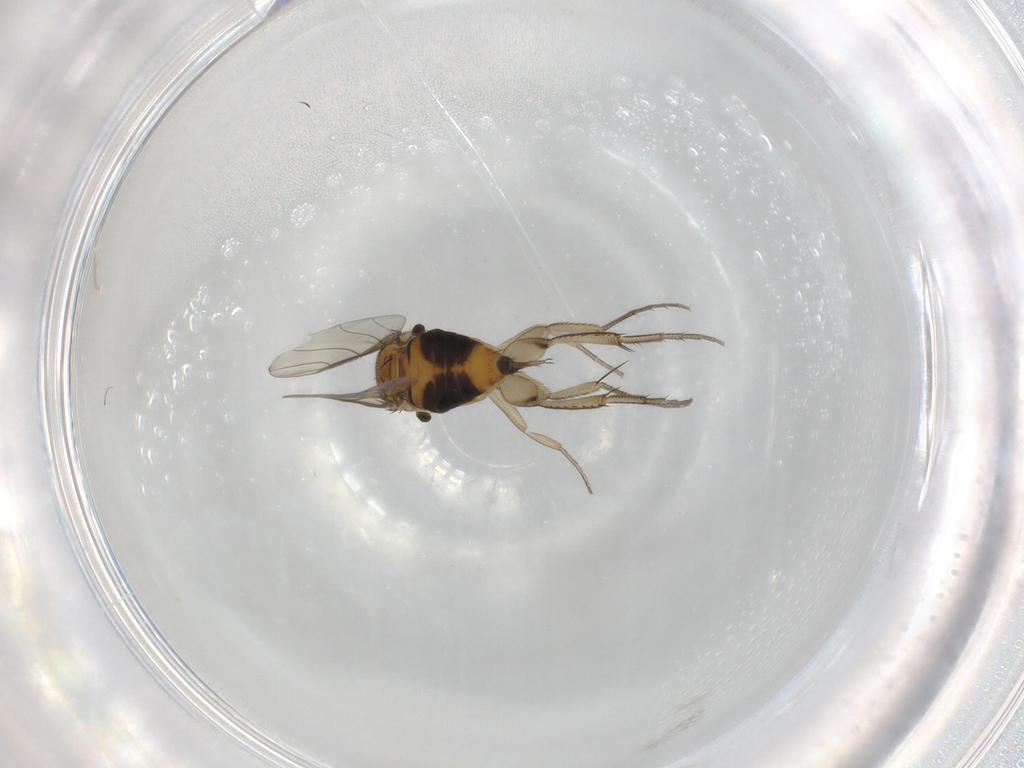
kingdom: Animalia
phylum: Arthropoda
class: Insecta
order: Diptera
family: Phoridae
